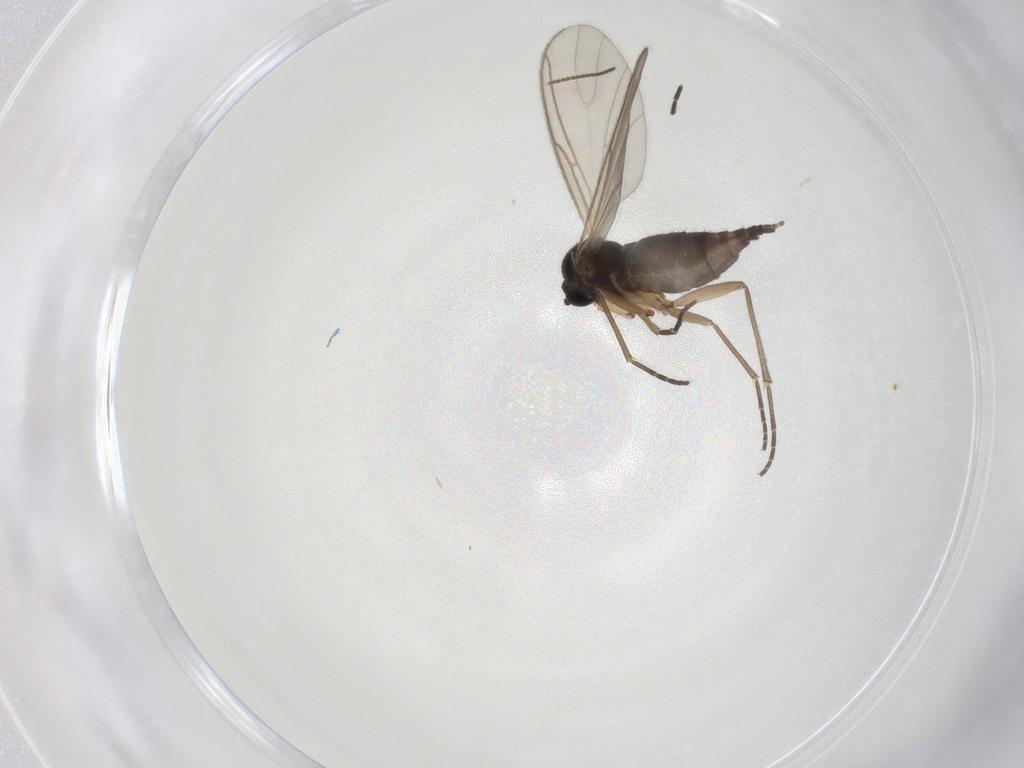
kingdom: Animalia
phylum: Arthropoda
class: Insecta
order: Diptera
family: Sciaridae
